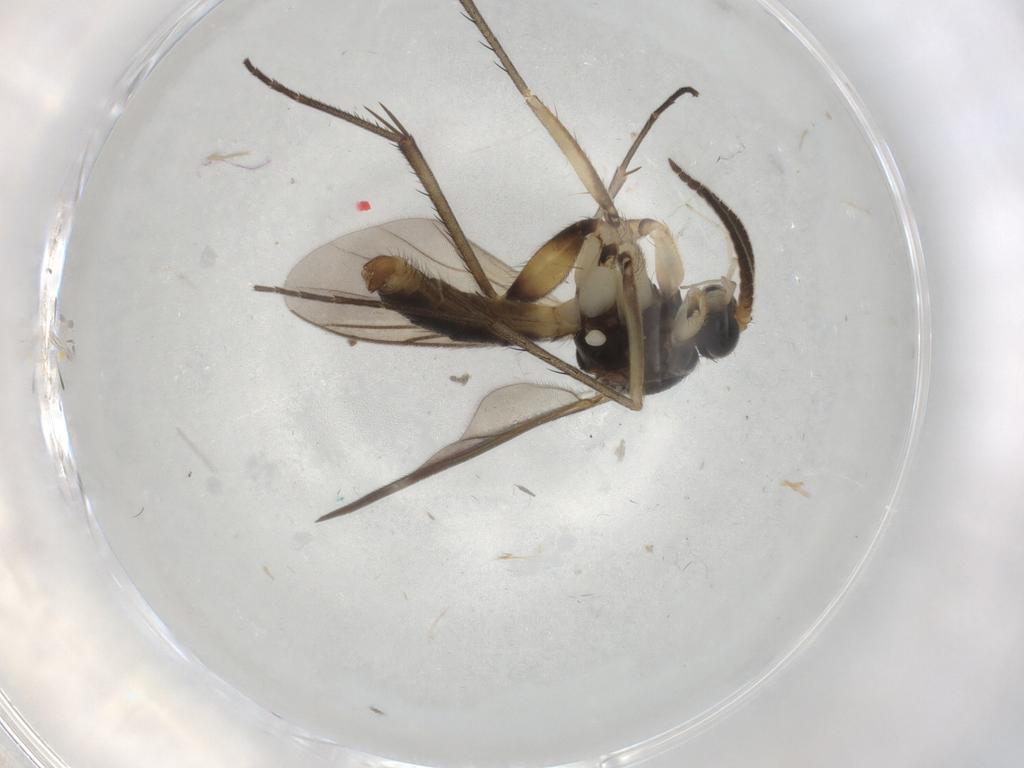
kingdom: Animalia
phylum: Arthropoda
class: Insecta
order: Diptera
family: Mycetophilidae
